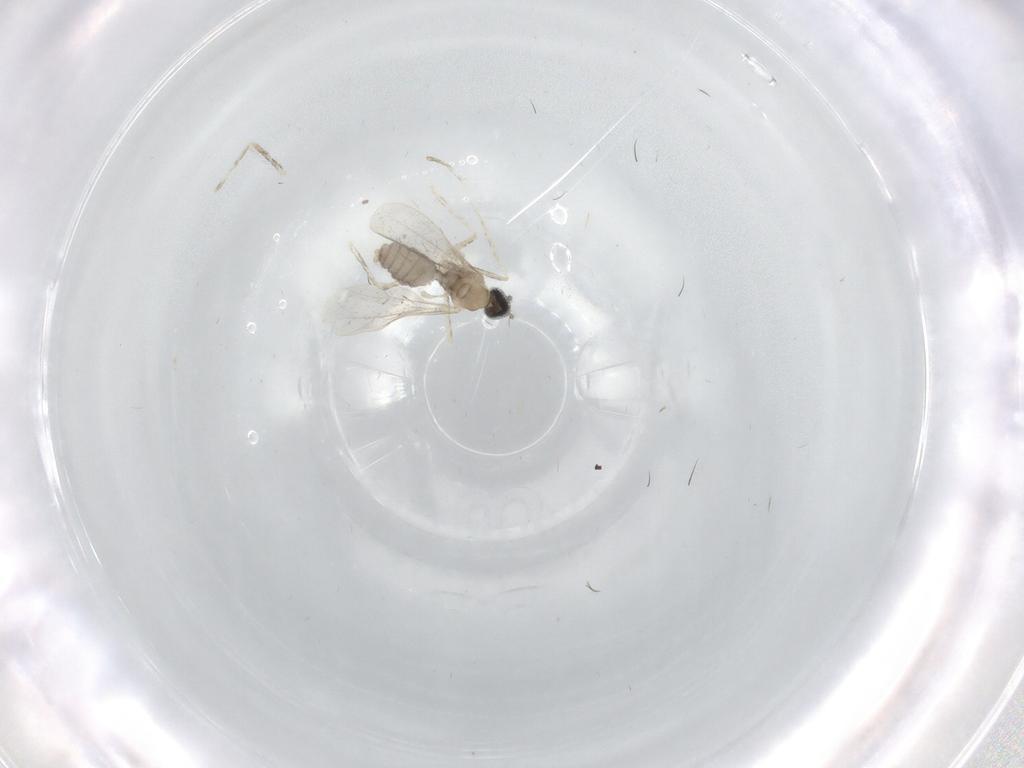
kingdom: Animalia
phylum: Arthropoda
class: Insecta
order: Diptera
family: Cecidomyiidae
